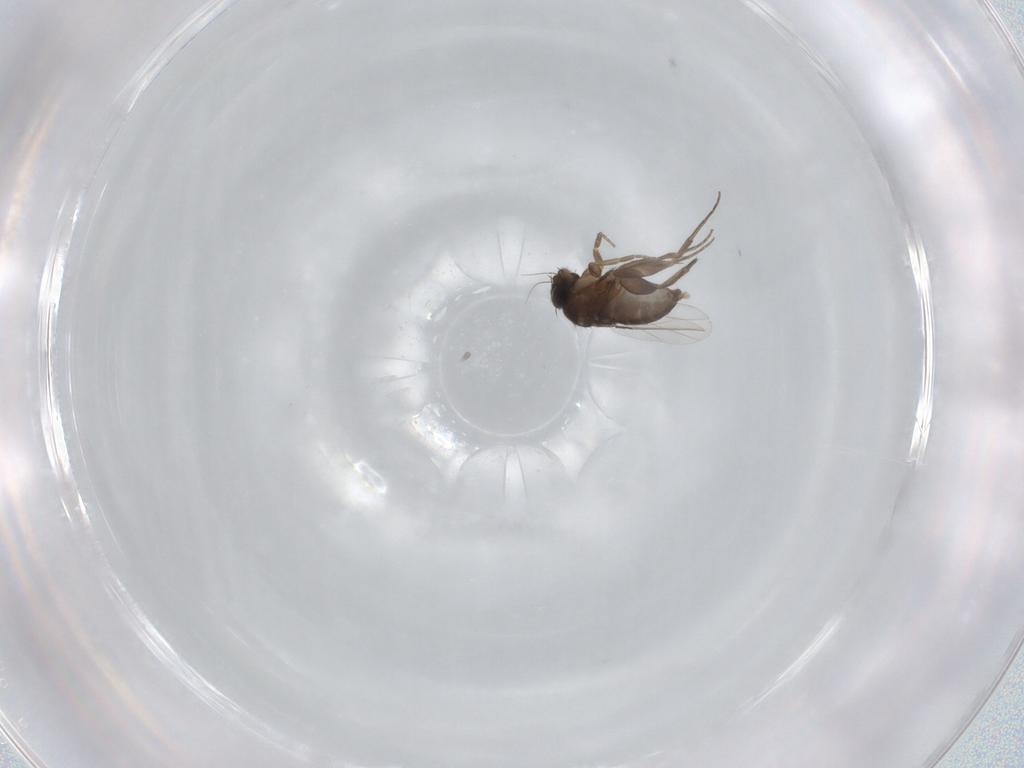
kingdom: Animalia
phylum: Arthropoda
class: Insecta
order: Diptera
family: Phoridae
